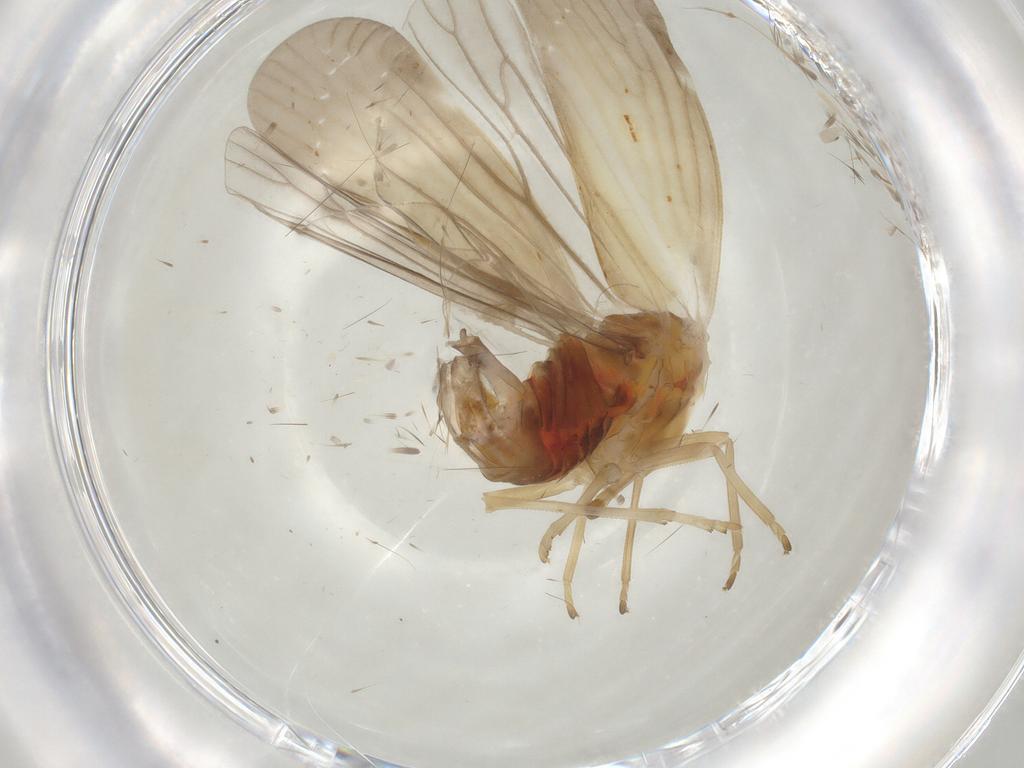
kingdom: Animalia
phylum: Arthropoda
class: Insecta
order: Hemiptera
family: Derbidae
